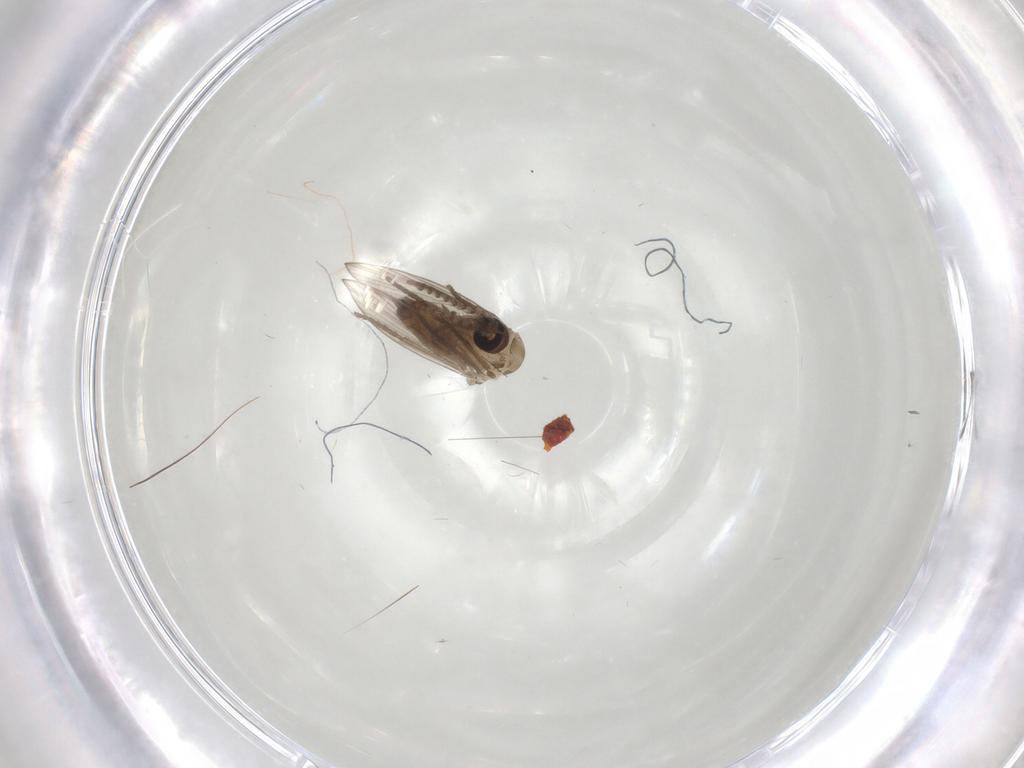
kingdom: Animalia
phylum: Arthropoda
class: Insecta
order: Diptera
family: Psychodidae
